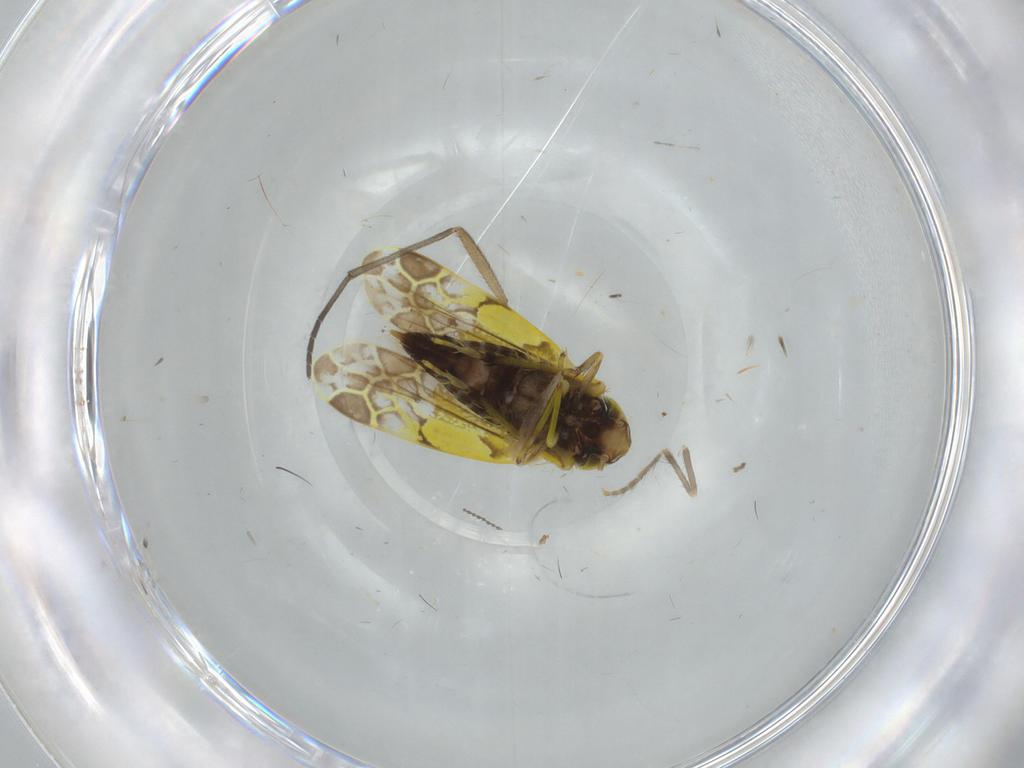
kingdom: Animalia
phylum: Arthropoda
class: Insecta
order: Hemiptera
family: Cicadellidae
